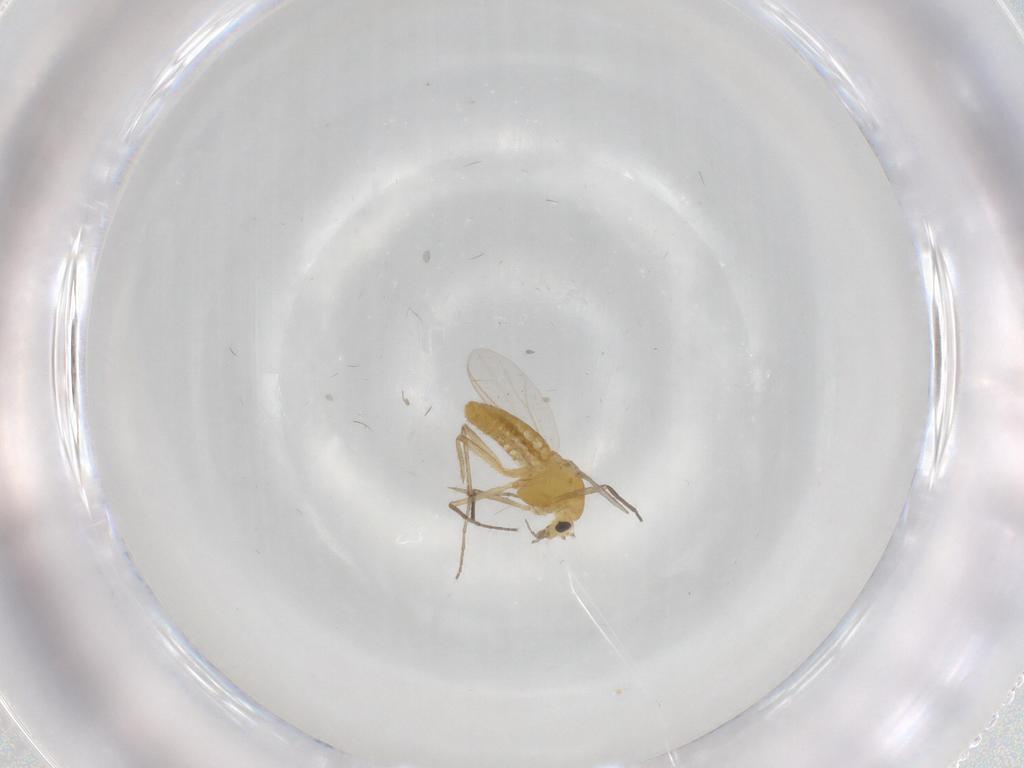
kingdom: Animalia
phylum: Arthropoda
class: Insecta
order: Diptera
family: Chironomidae
